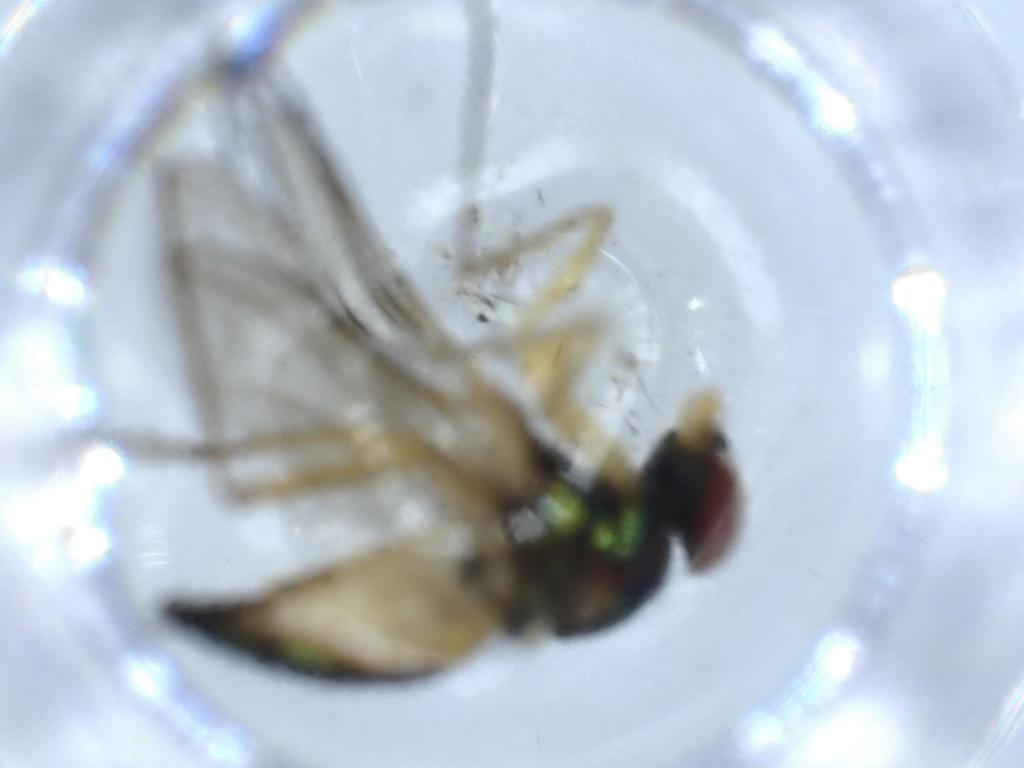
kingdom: Animalia
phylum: Arthropoda
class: Insecta
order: Diptera
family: Dolichopodidae
